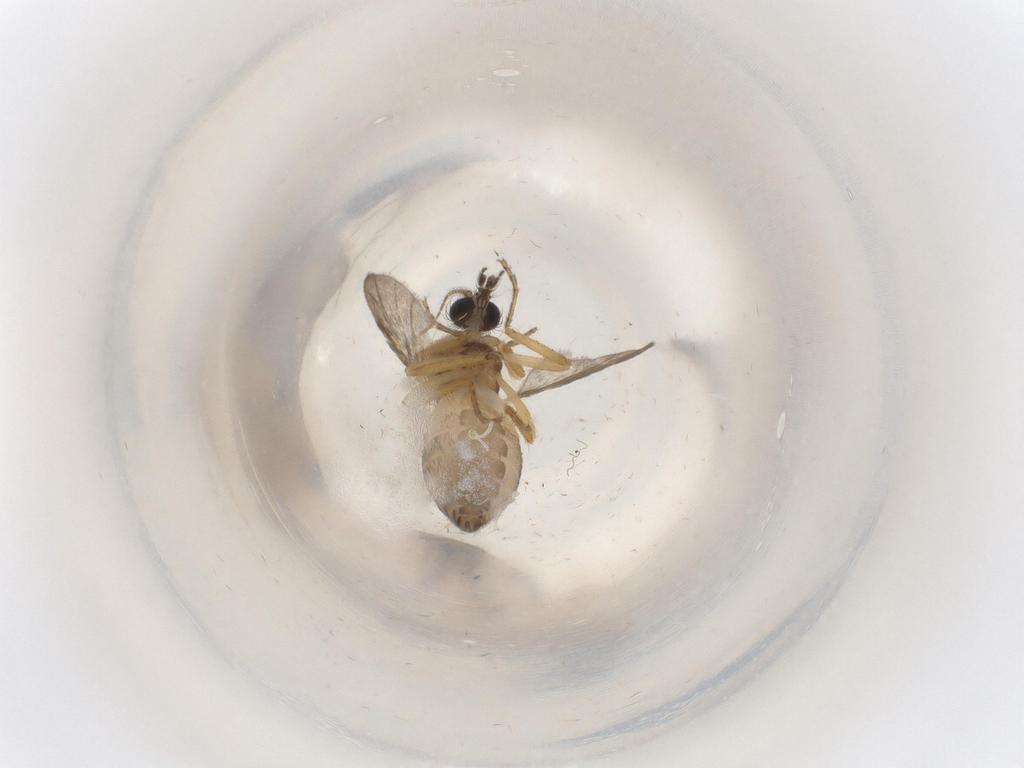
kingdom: Animalia
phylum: Arthropoda
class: Insecta
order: Diptera
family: Ceratopogonidae
